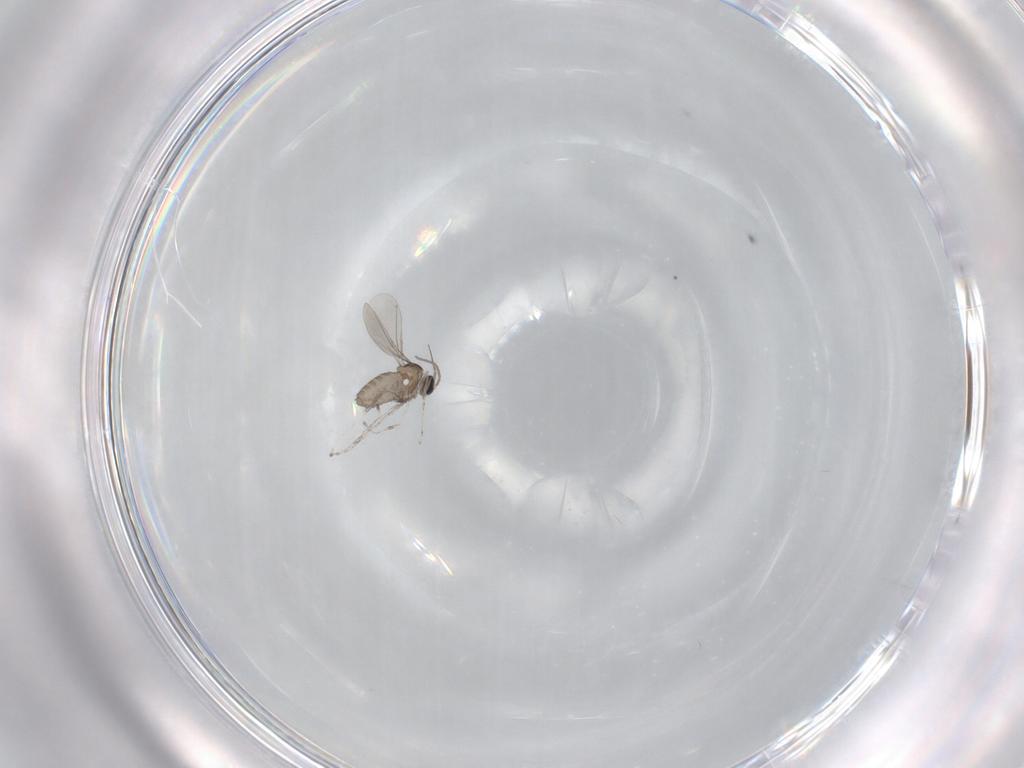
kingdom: Animalia
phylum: Arthropoda
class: Insecta
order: Diptera
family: Cecidomyiidae
